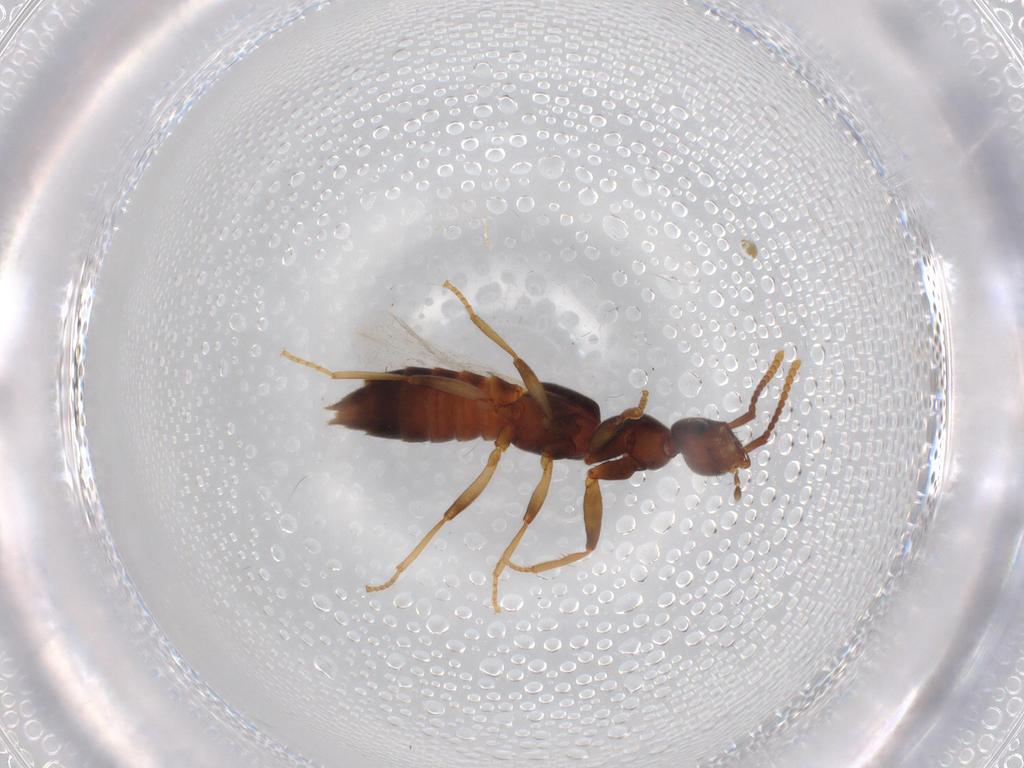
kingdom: Animalia
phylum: Arthropoda
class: Insecta
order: Coleoptera
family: Staphylinidae
